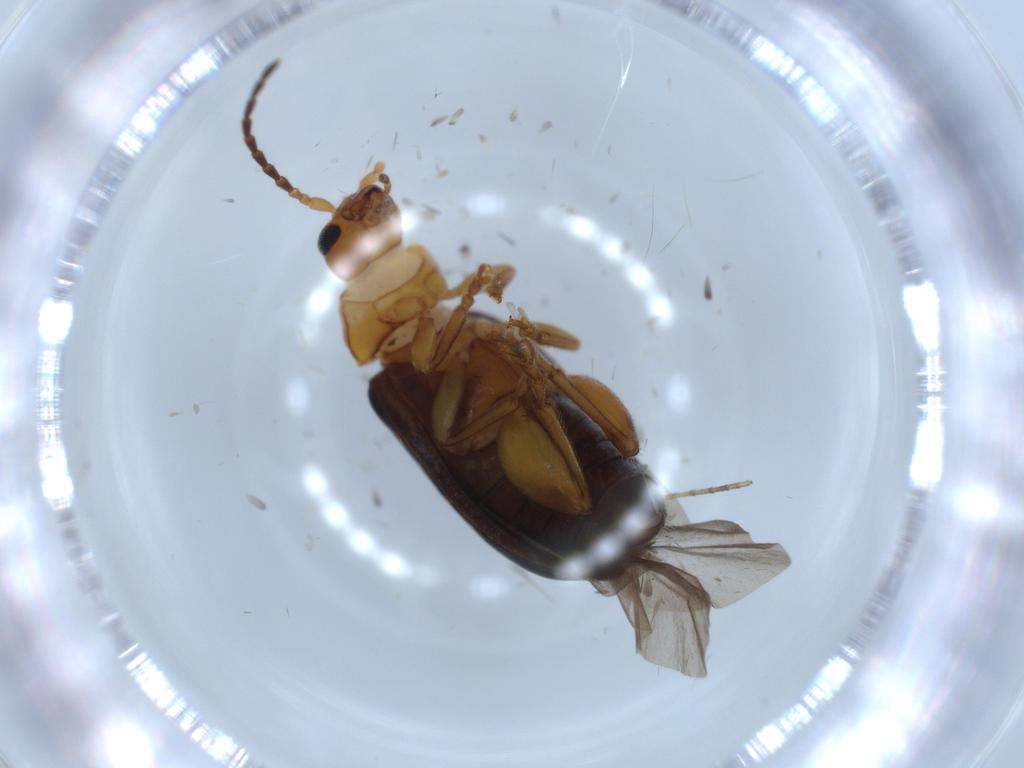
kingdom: Animalia
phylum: Arthropoda
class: Insecta
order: Coleoptera
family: Chrysomelidae
